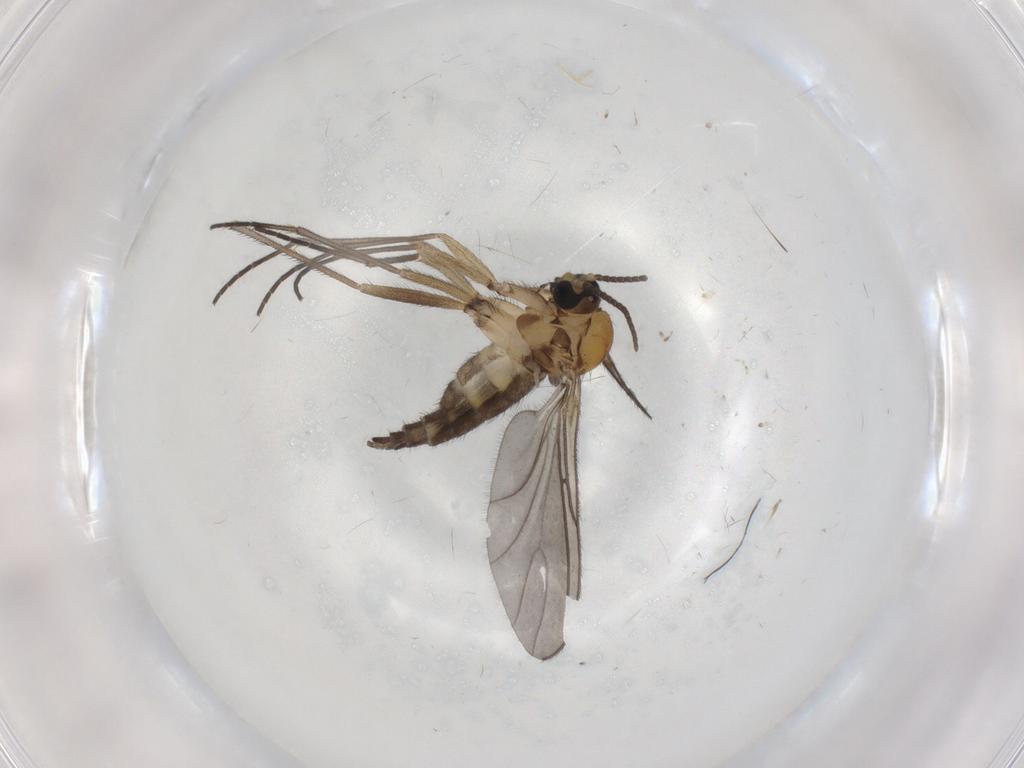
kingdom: Animalia
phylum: Arthropoda
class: Insecta
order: Diptera
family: Sciaridae
